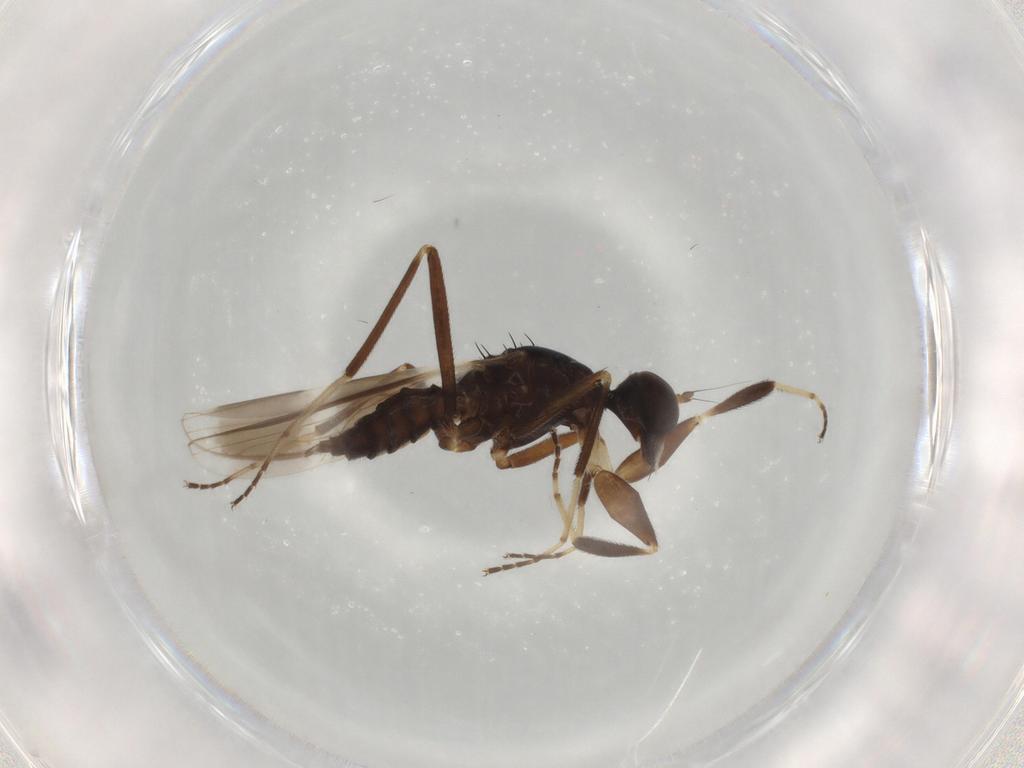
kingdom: Animalia
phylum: Arthropoda
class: Insecta
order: Diptera
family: Hybotidae
